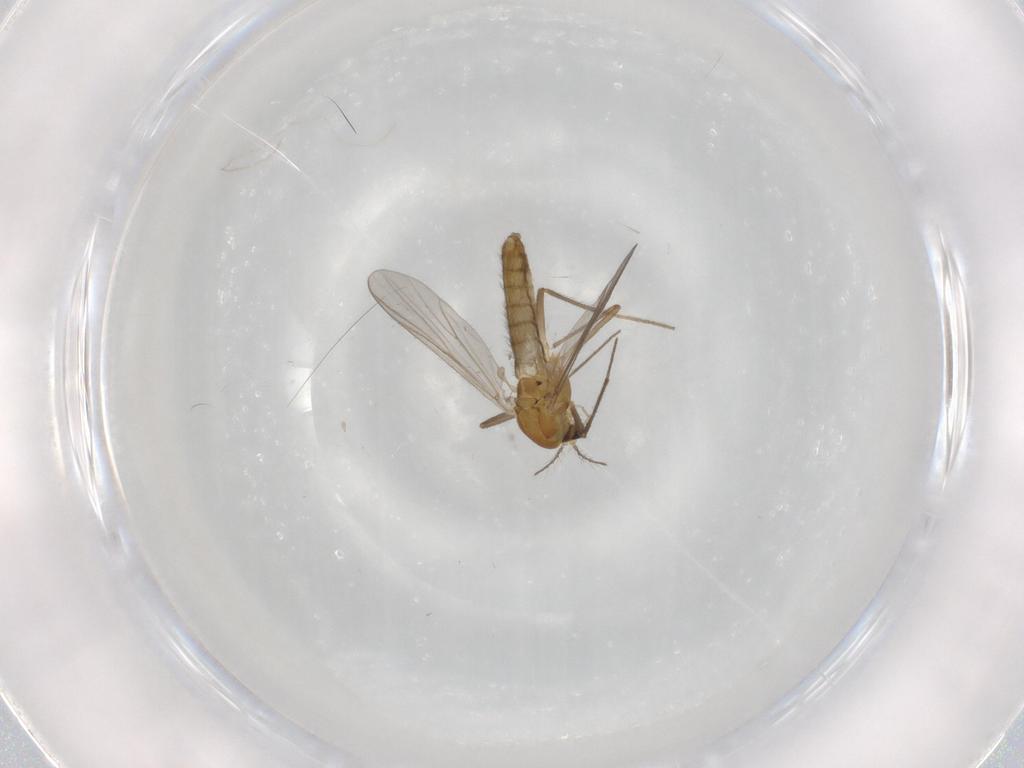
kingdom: Animalia
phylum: Arthropoda
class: Insecta
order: Diptera
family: Chironomidae
